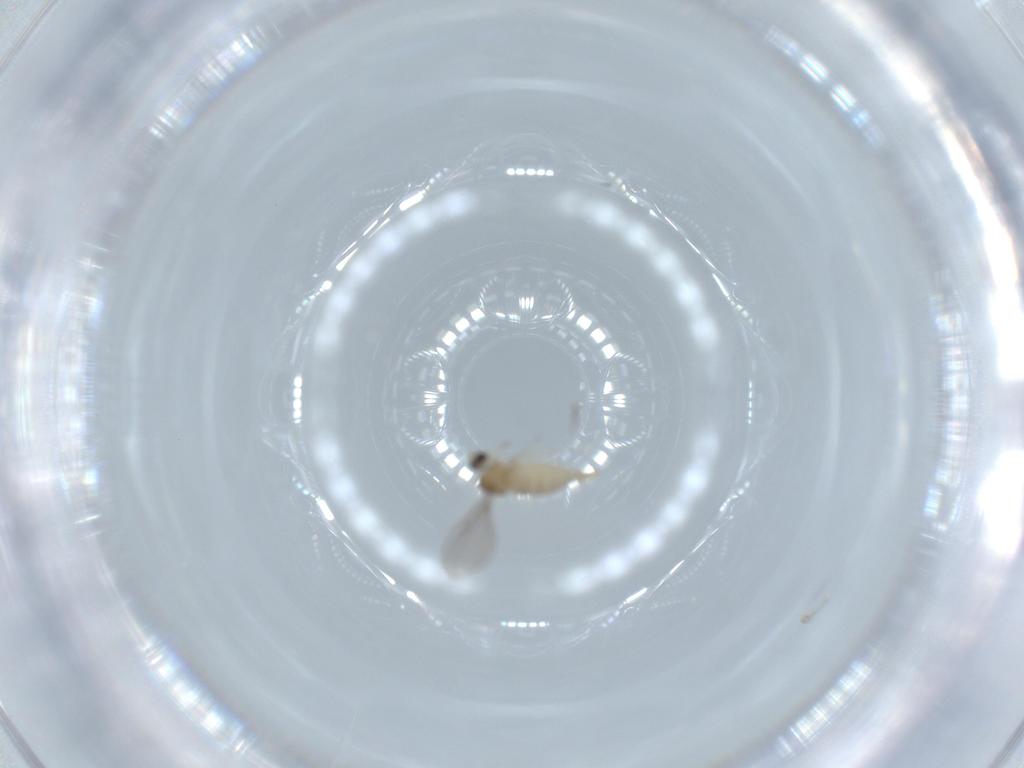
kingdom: Animalia
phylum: Arthropoda
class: Insecta
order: Diptera
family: Cecidomyiidae
